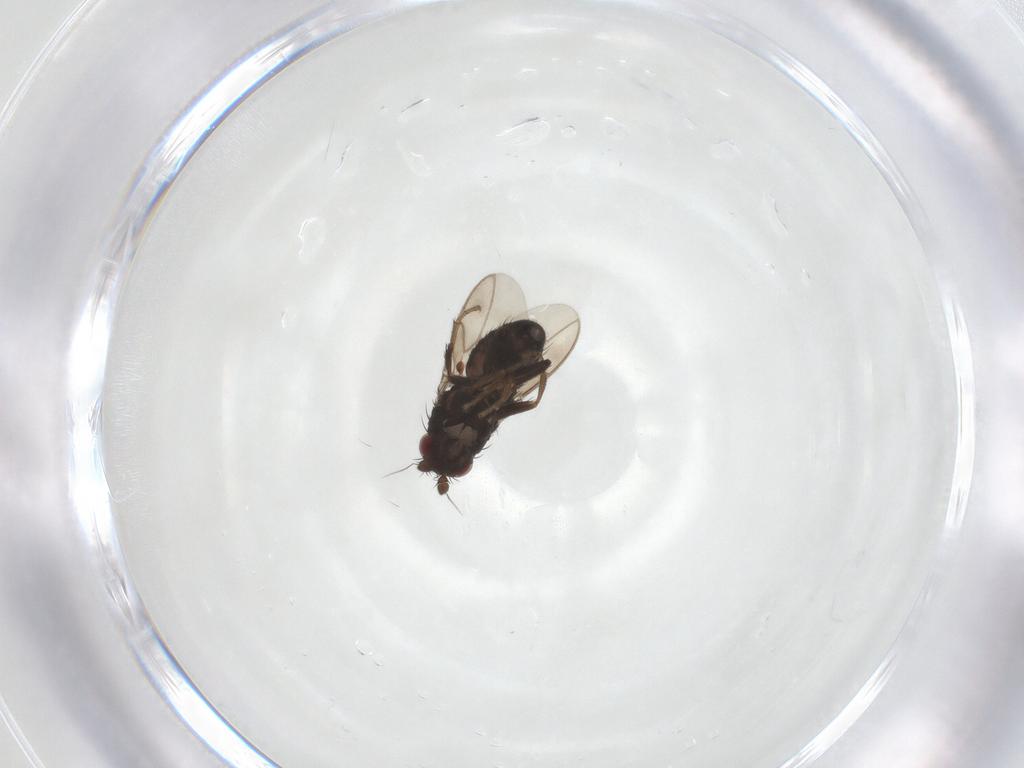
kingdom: Animalia
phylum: Arthropoda
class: Insecta
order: Diptera
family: Sphaeroceridae
